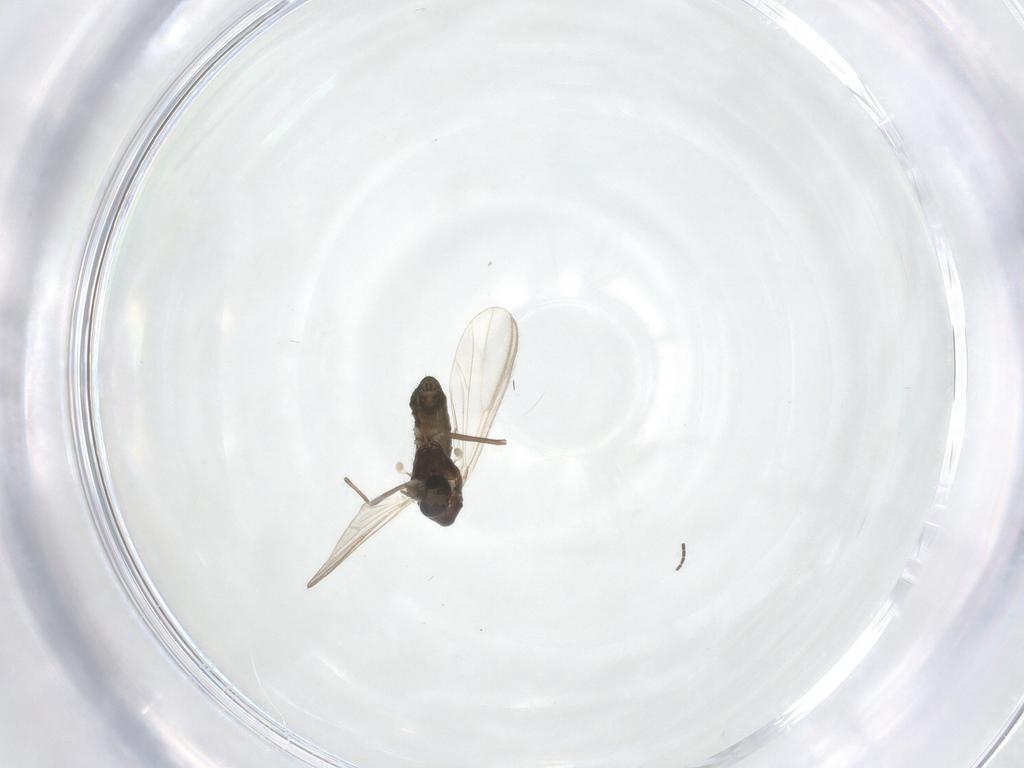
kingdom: Animalia
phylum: Arthropoda
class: Insecta
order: Diptera
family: Chironomidae
